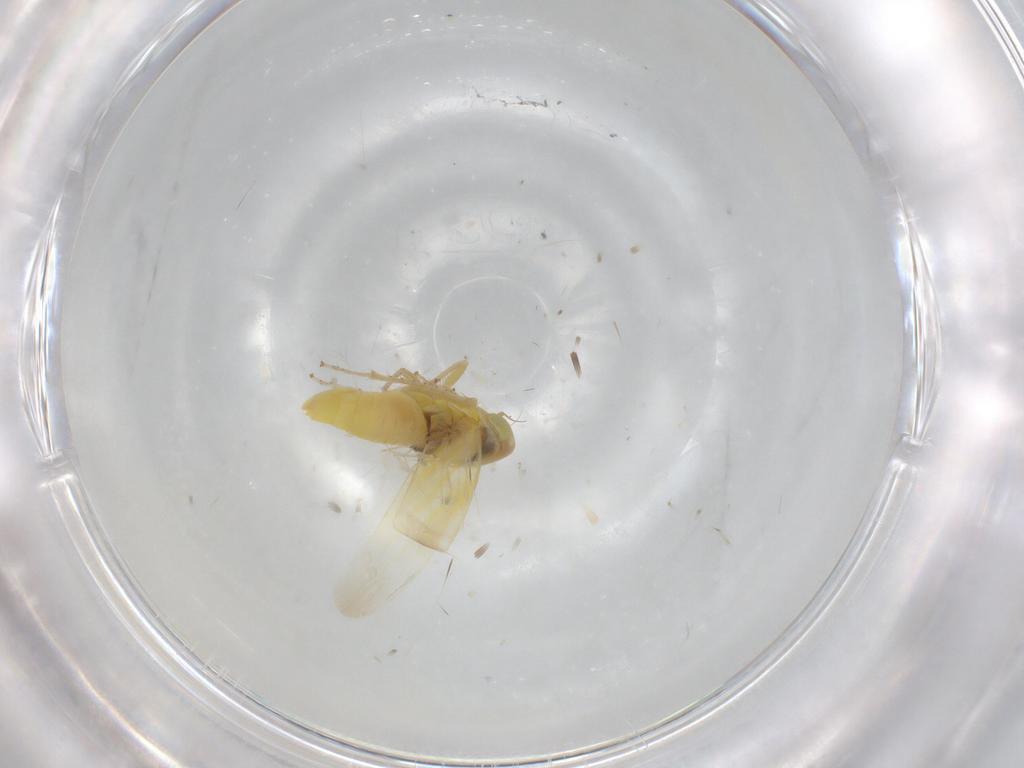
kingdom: Animalia
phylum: Arthropoda
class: Insecta
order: Hemiptera
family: Cicadellidae
